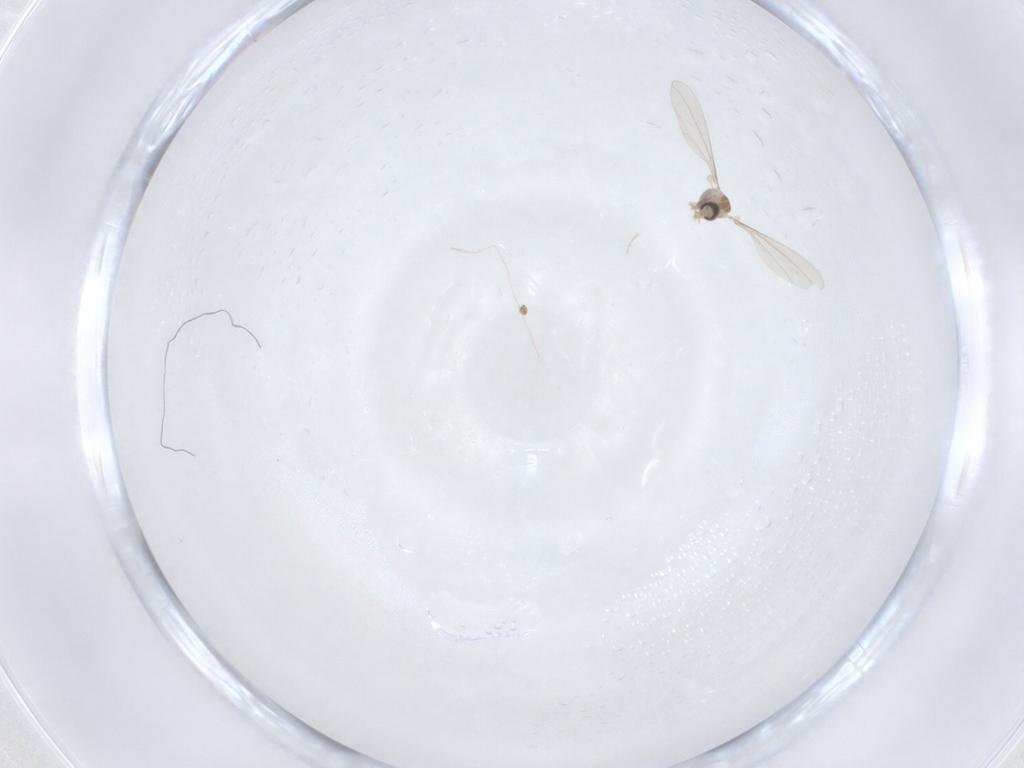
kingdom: Animalia
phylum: Arthropoda
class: Insecta
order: Diptera
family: Cecidomyiidae
